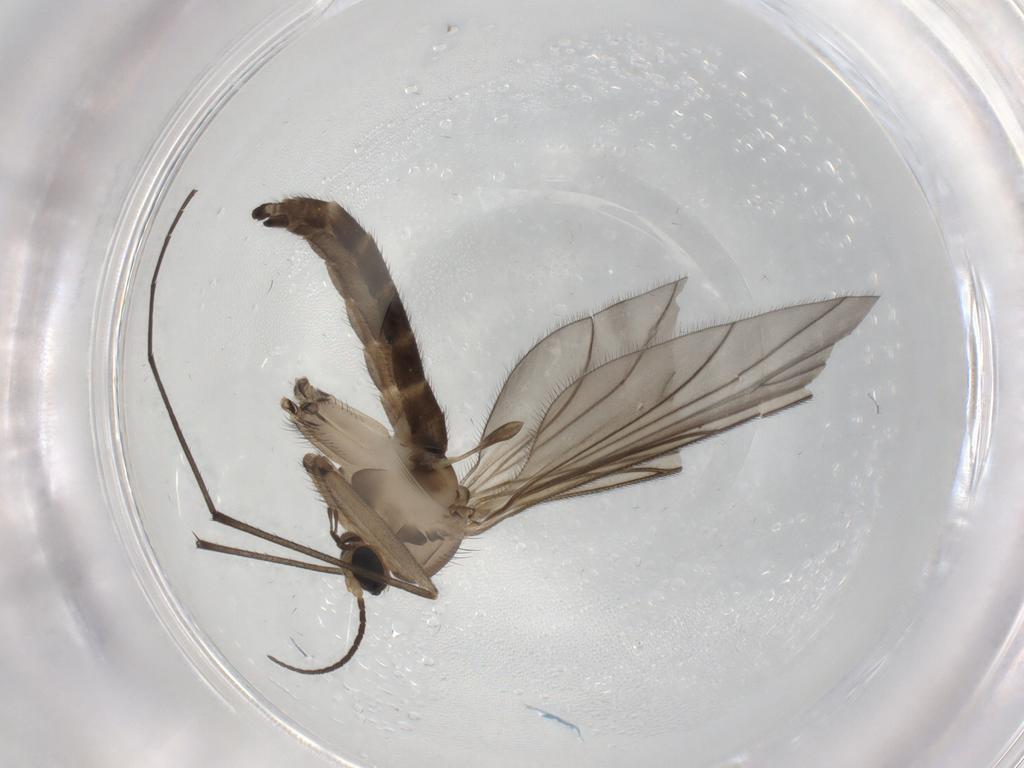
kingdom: Animalia
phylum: Arthropoda
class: Insecta
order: Diptera
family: Sciaridae
